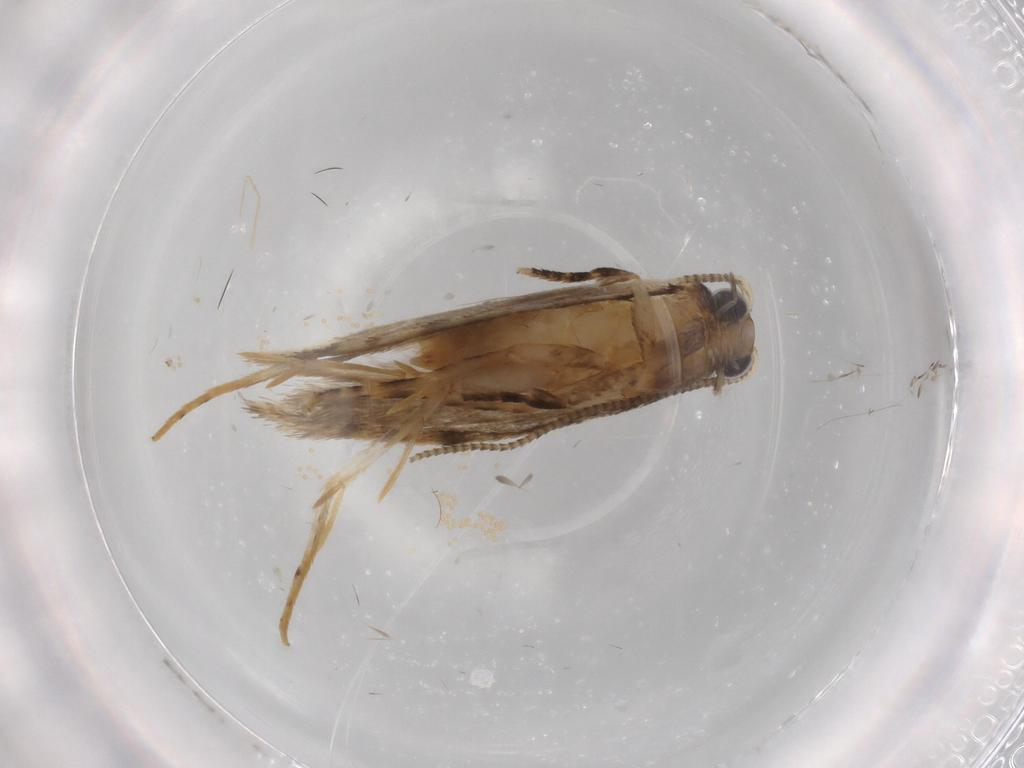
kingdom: Animalia
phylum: Arthropoda
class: Insecta
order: Lepidoptera
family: Tineidae
